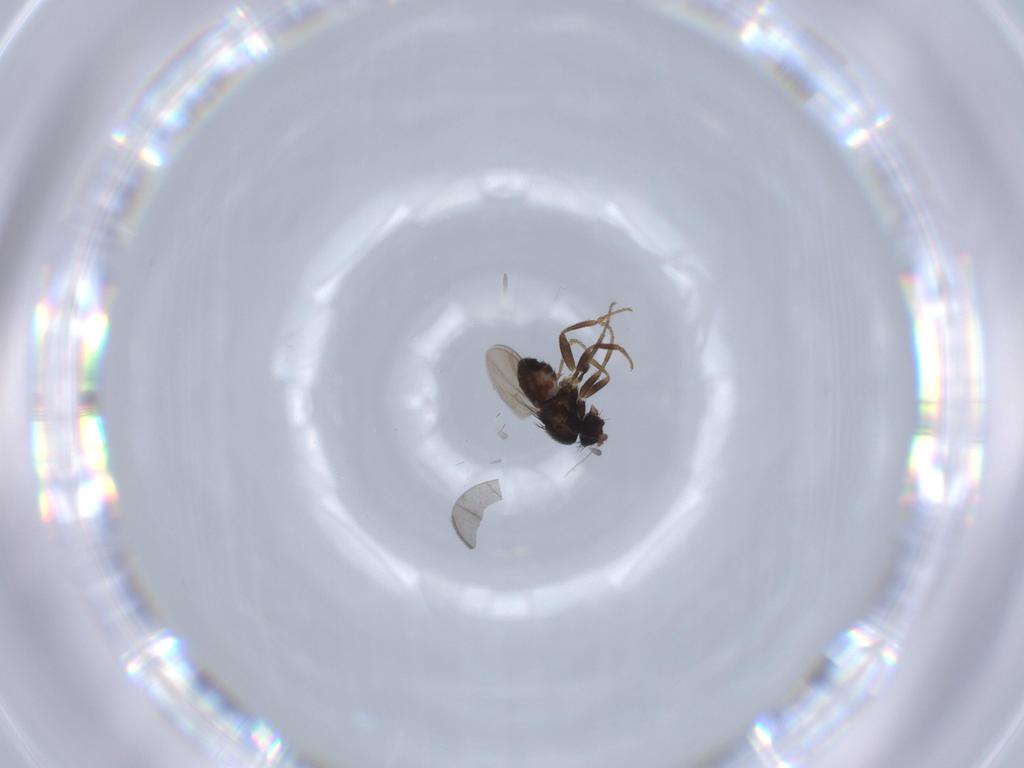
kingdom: Animalia
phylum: Arthropoda
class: Insecta
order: Diptera
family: Sphaeroceridae
